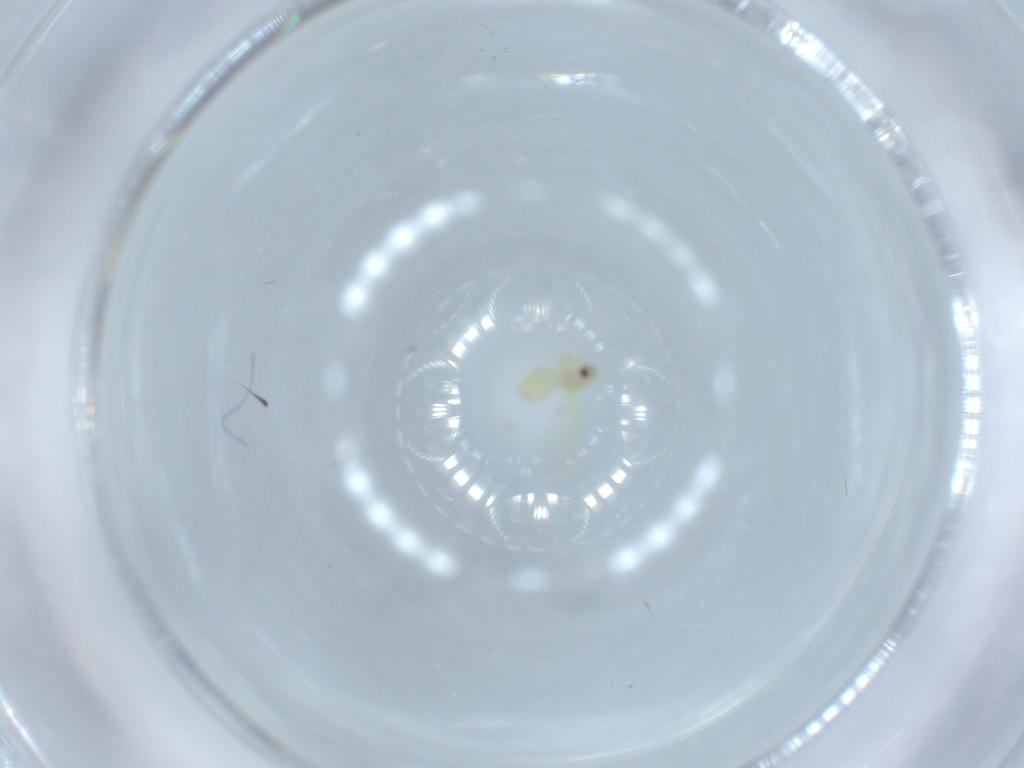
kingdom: Animalia
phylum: Arthropoda
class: Insecta
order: Hemiptera
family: Aleyrodidae
